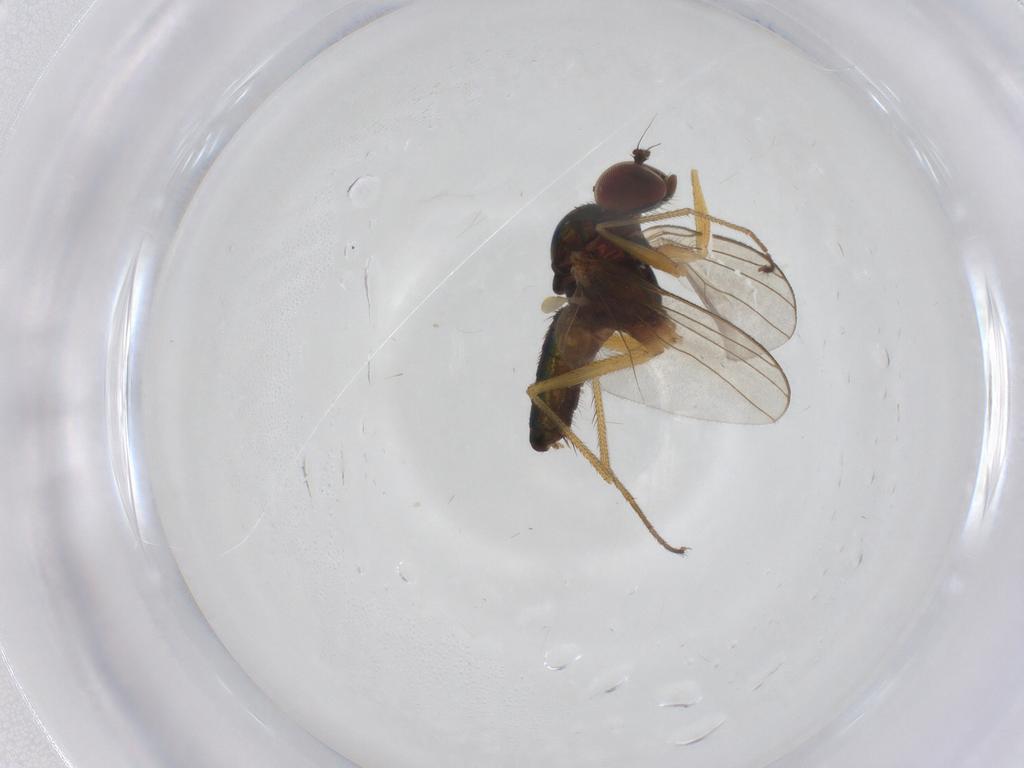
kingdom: Animalia
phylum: Arthropoda
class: Insecta
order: Diptera
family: Dolichopodidae
